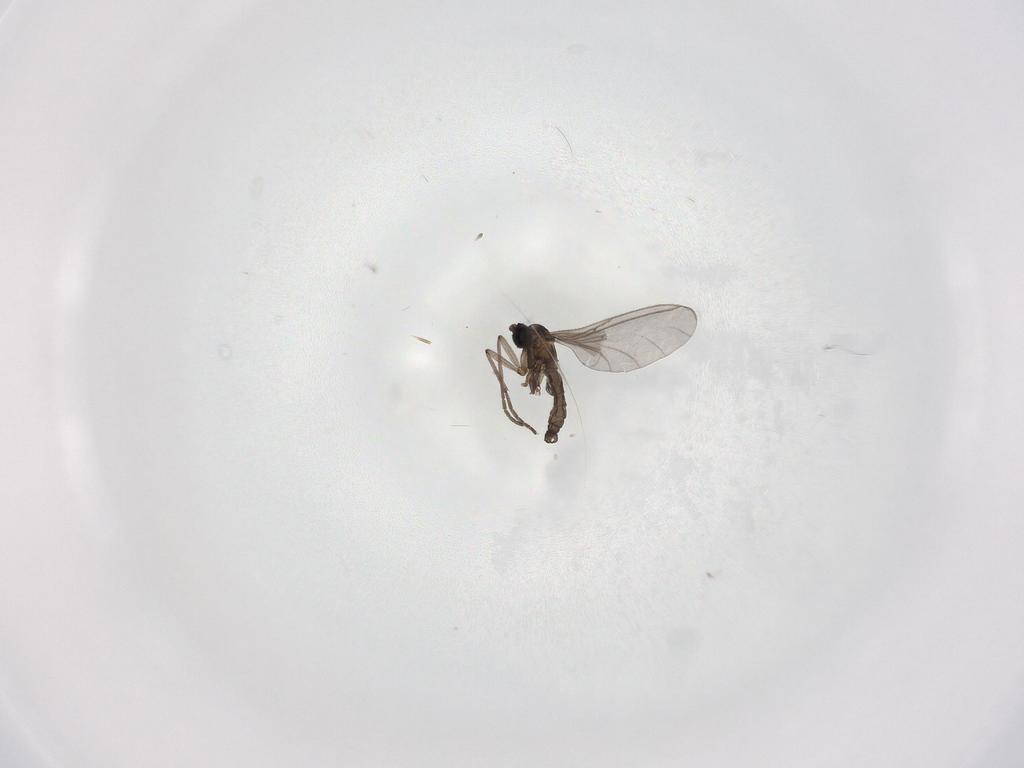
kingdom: Animalia
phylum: Arthropoda
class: Insecta
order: Diptera
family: Sciaridae
